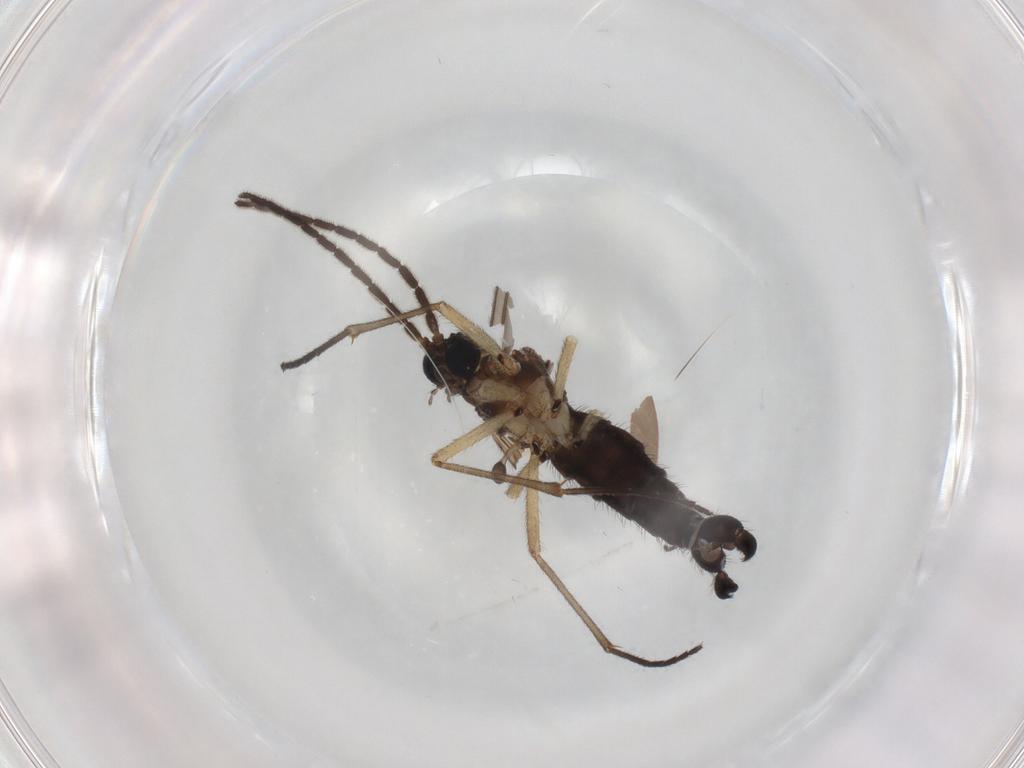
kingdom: Animalia
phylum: Arthropoda
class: Insecta
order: Diptera
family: Sciaridae
